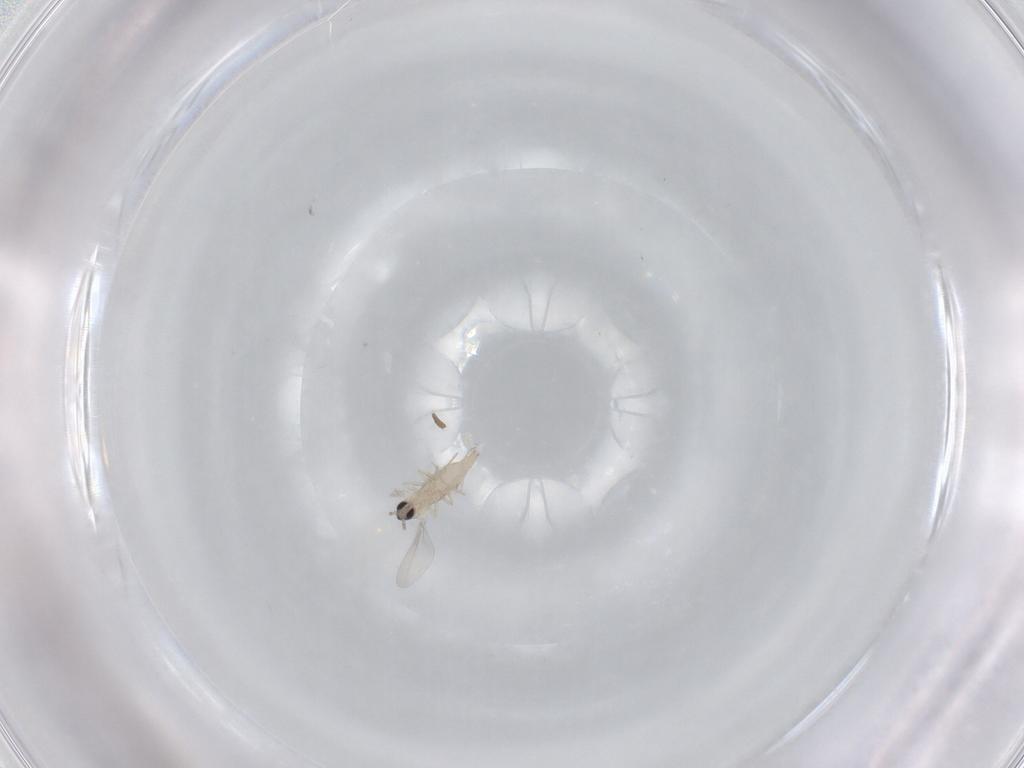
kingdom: Animalia
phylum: Arthropoda
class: Insecta
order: Diptera
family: Cecidomyiidae
